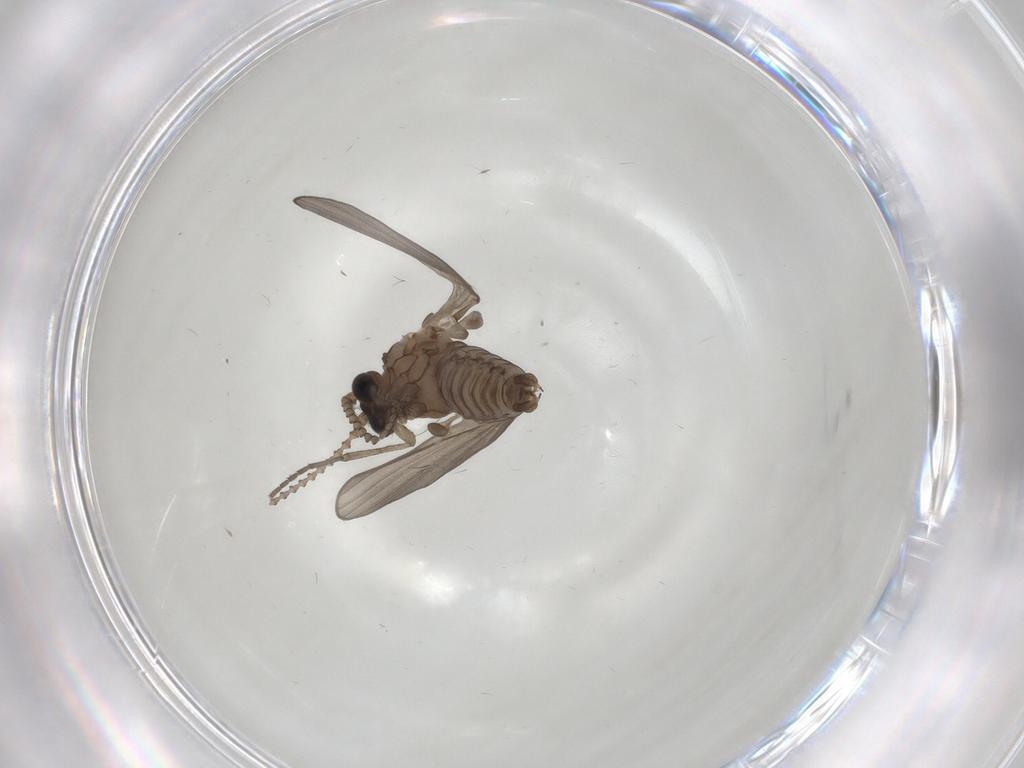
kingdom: Animalia
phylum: Arthropoda
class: Insecta
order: Diptera
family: Psychodidae
